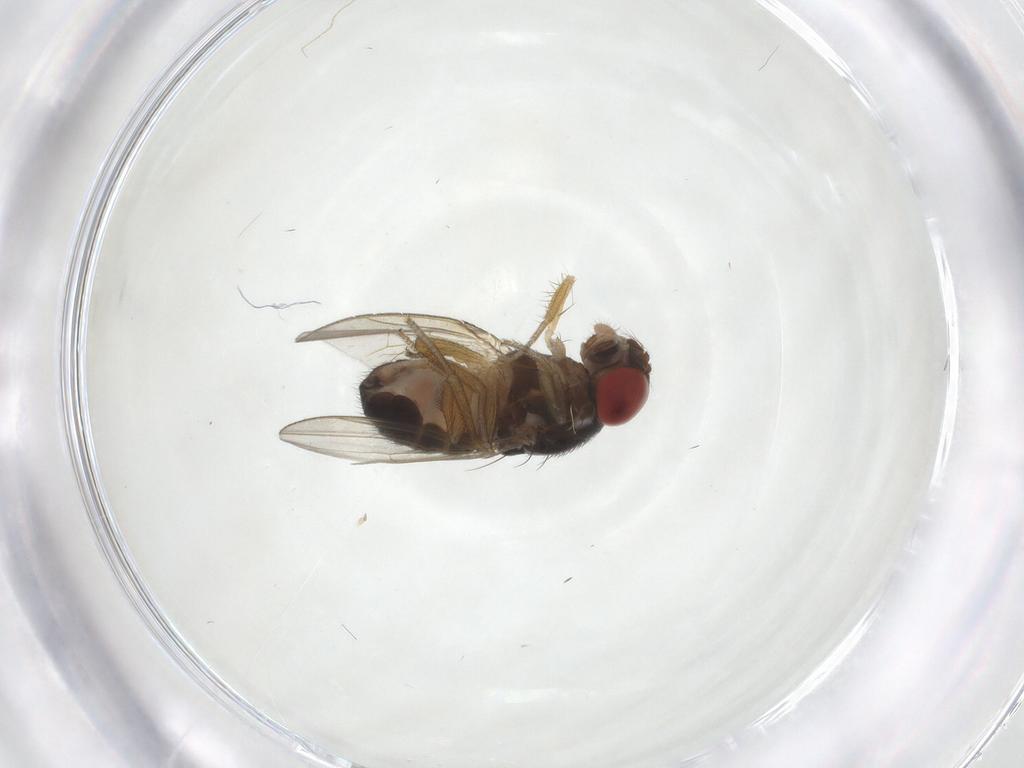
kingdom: Animalia
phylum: Arthropoda
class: Insecta
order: Diptera
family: Drosophilidae
